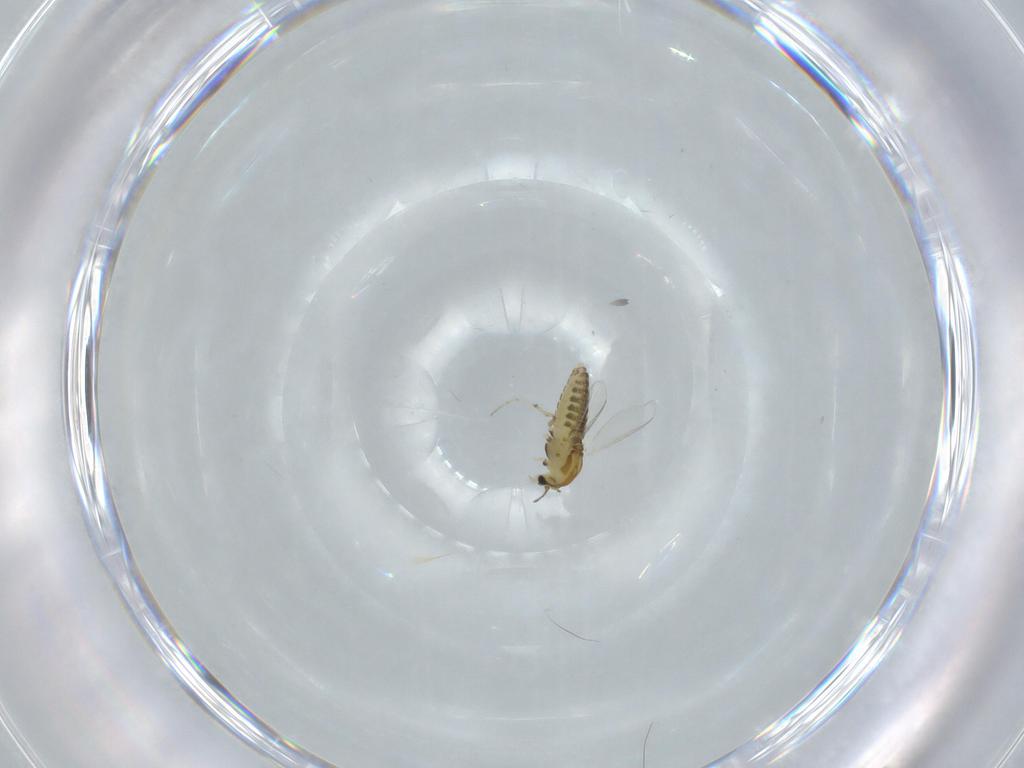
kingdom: Animalia
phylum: Arthropoda
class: Insecta
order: Diptera
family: Chironomidae
